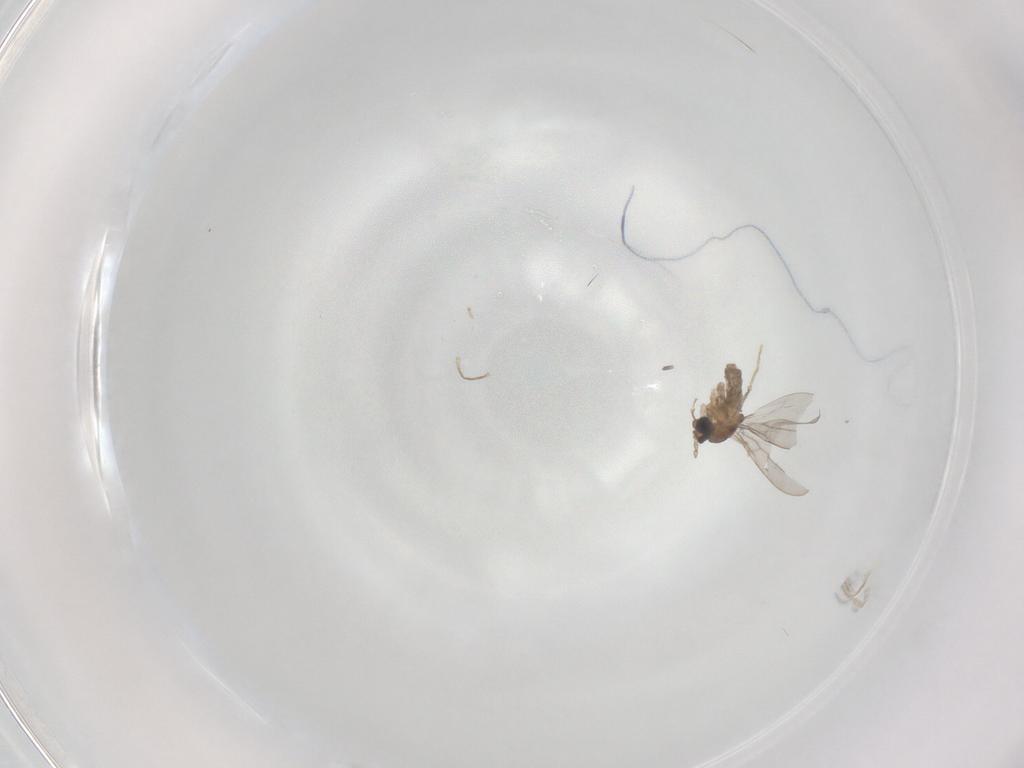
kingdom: Animalia
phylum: Arthropoda
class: Insecta
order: Diptera
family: Cecidomyiidae
